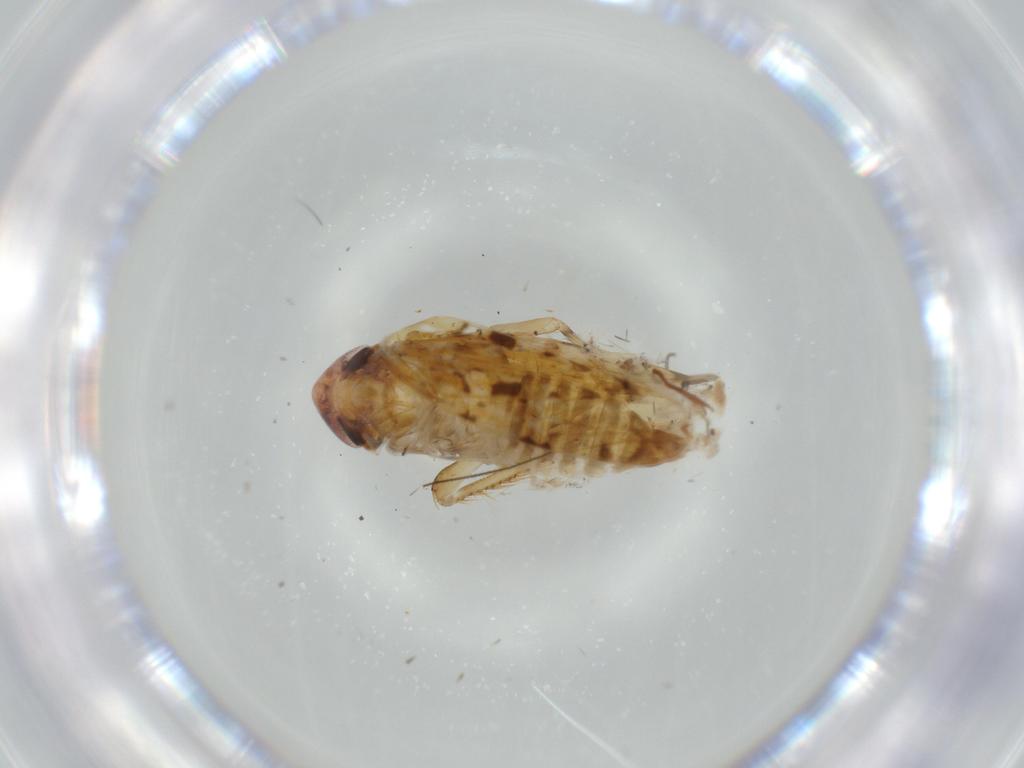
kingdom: Animalia
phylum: Arthropoda
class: Insecta
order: Hemiptera
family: Cicadellidae
